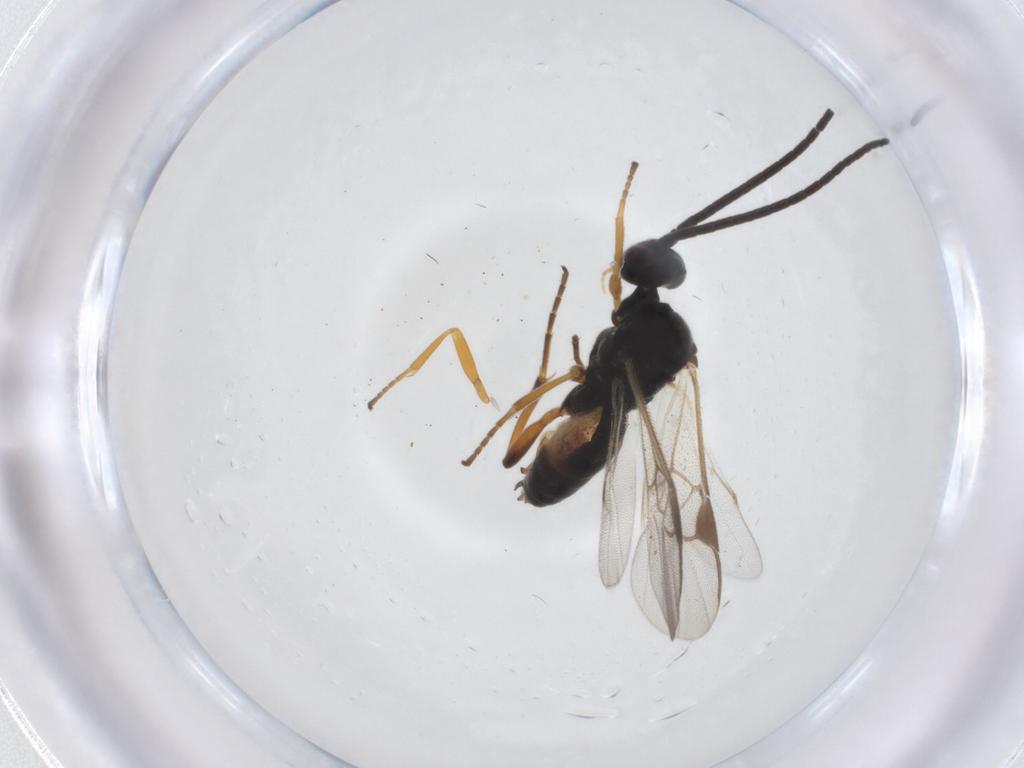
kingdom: Animalia
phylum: Arthropoda
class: Insecta
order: Hymenoptera
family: Braconidae
